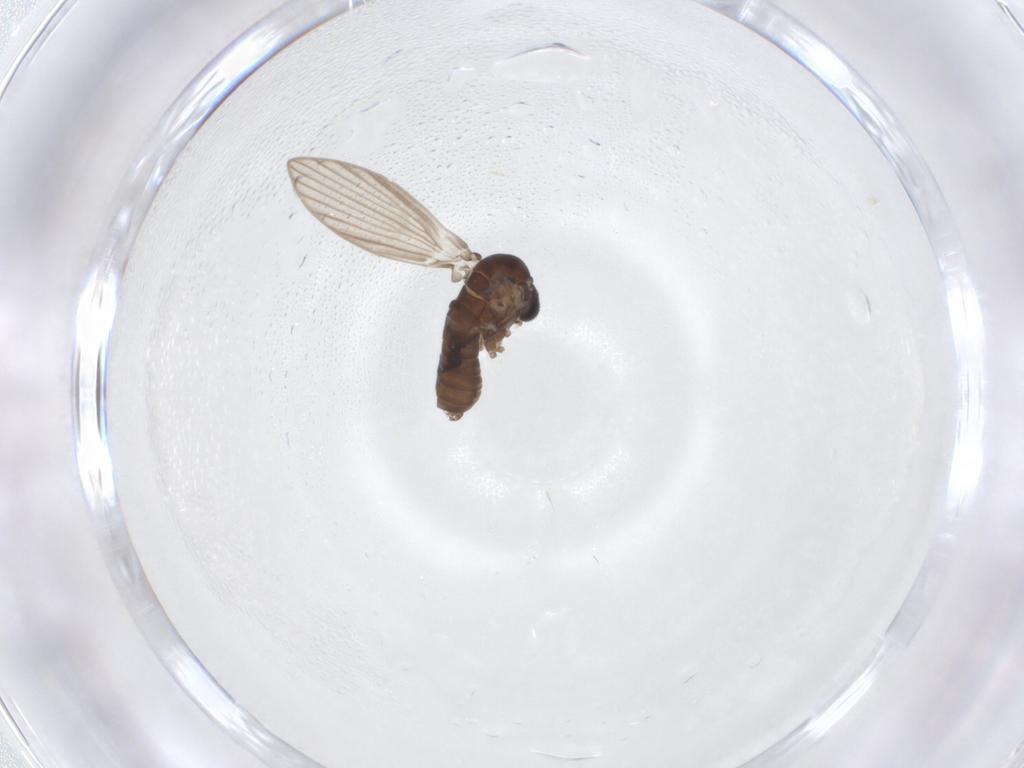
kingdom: Animalia
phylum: Arthropoda
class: Insecta
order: Diptera
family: Psychodidae
